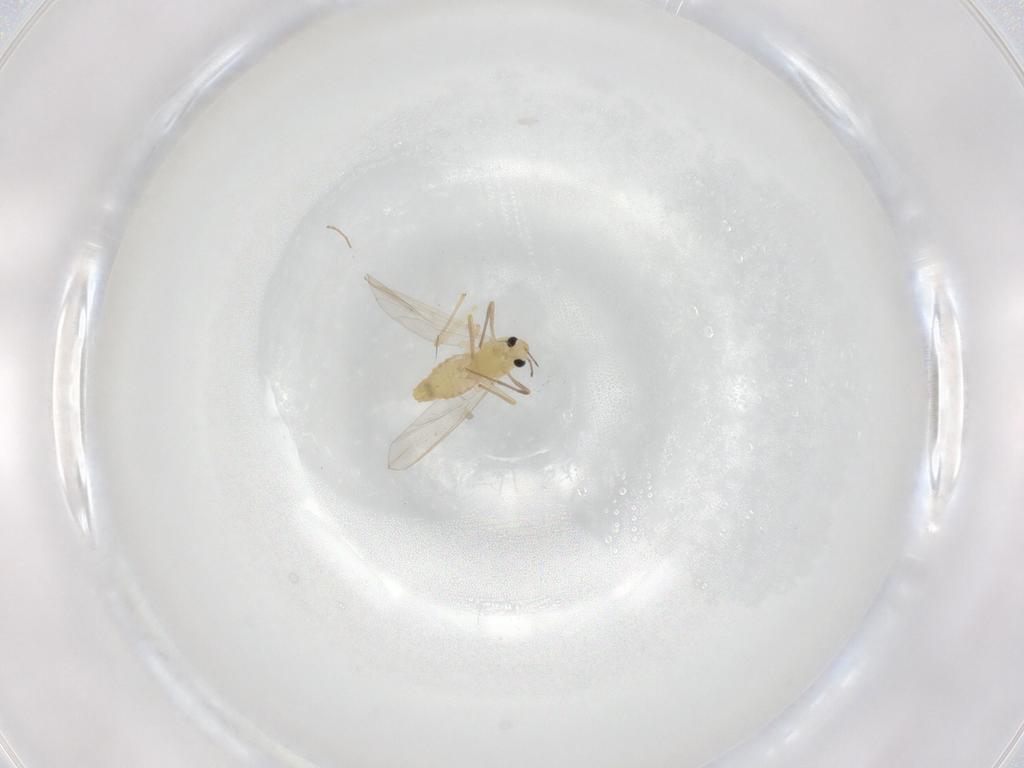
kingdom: Animalia
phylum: Arthropoda
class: Insecta
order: Diptera
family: Chironomidae
